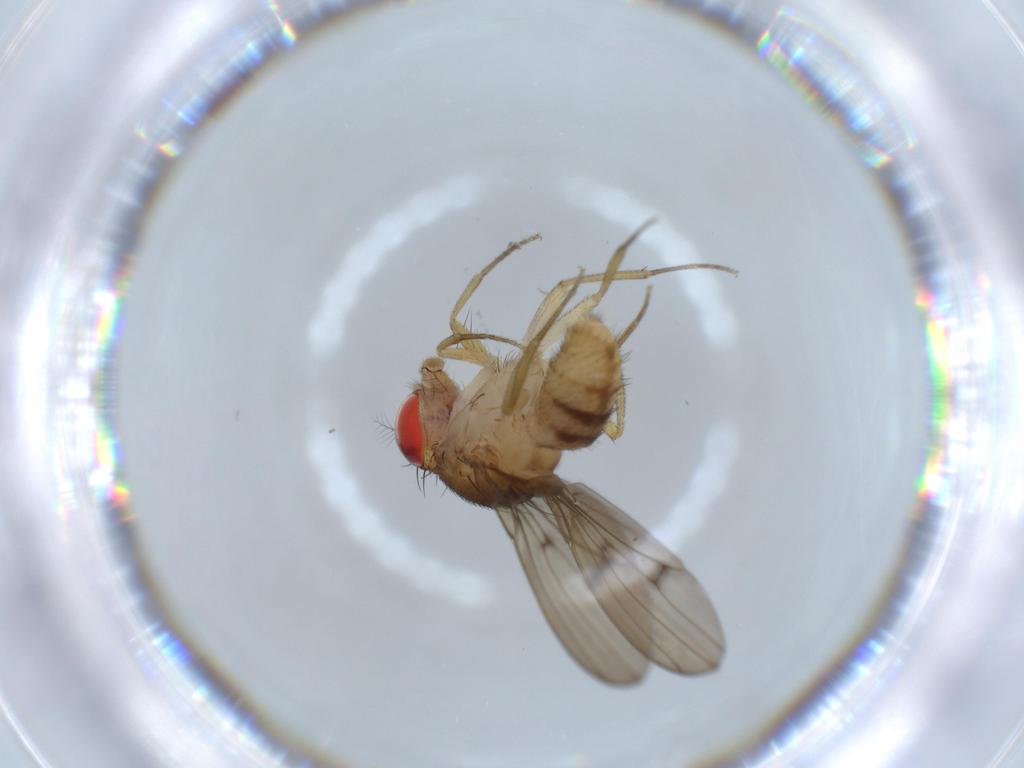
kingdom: Animalia
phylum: Arthropoda
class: Insecta
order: Diptera
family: Drosophilidae
